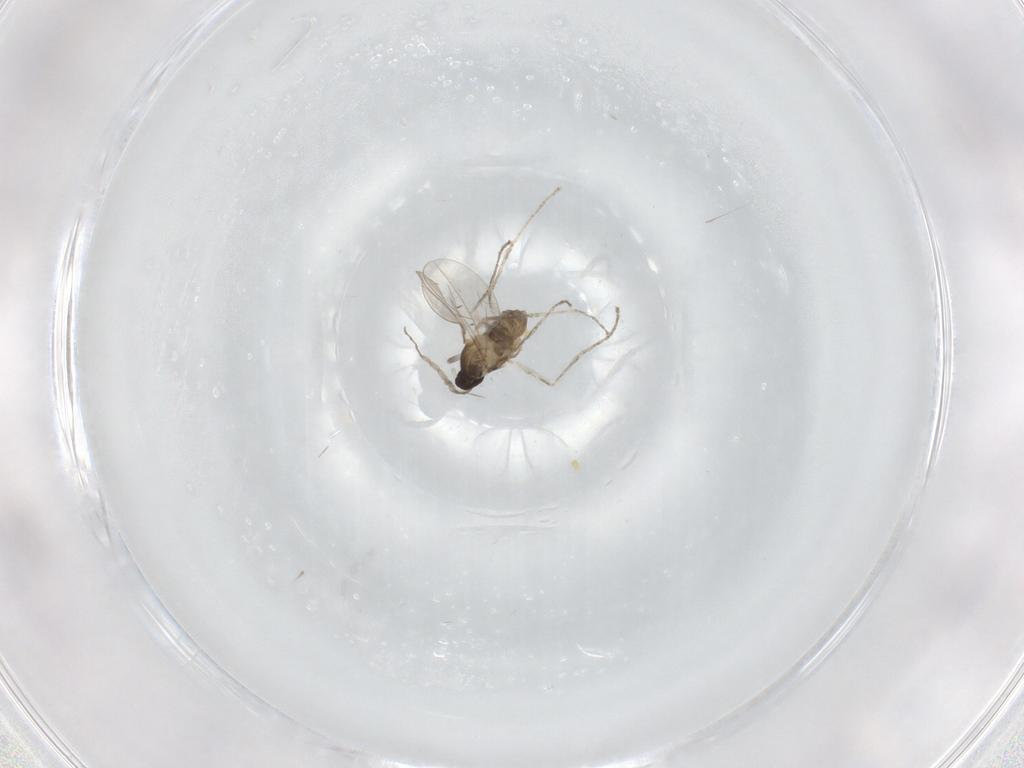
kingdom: Animalia
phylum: Arthropoda
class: Insecta
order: Diptera
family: Cecidomyiidae
